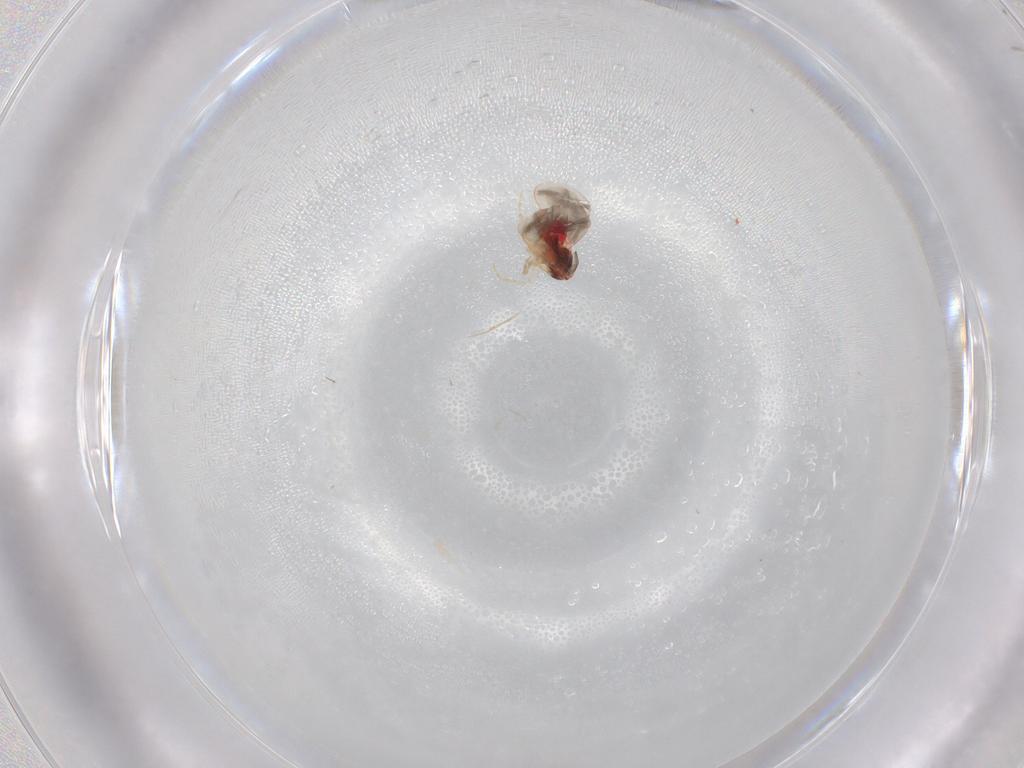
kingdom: Animalia
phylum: Arthropoda
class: Insecta
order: Hemiptera
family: Aleyrodidae
